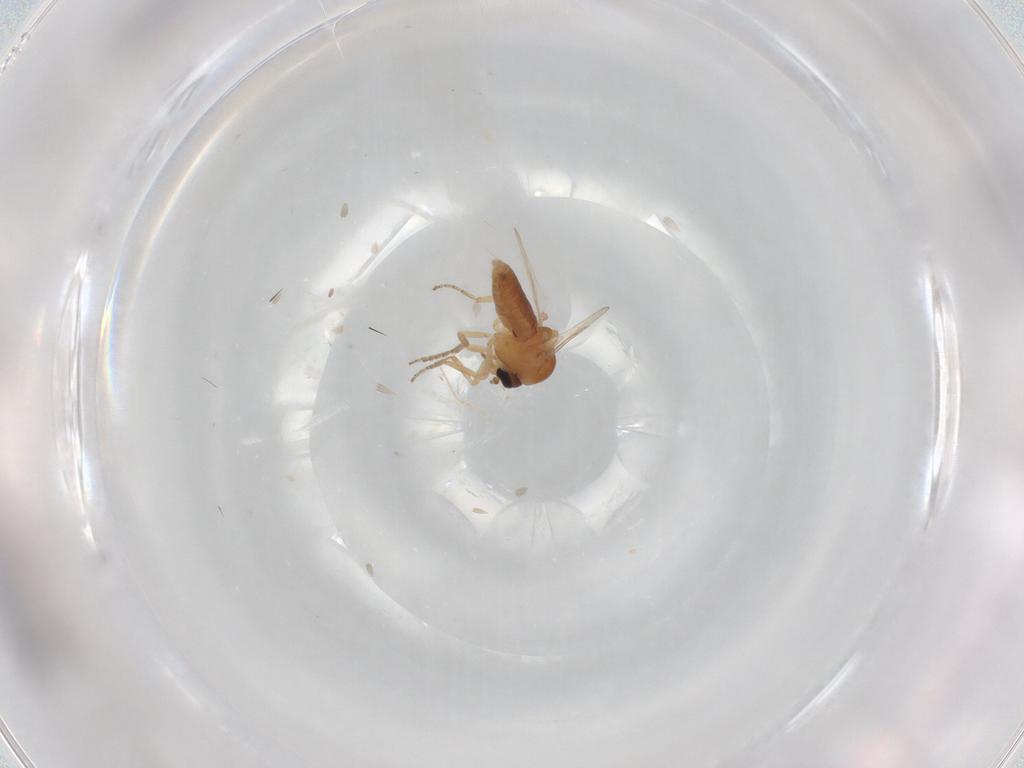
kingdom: Animalia
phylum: Arthropoda
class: Insecta
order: Diptera
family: Ceratopogonidae
